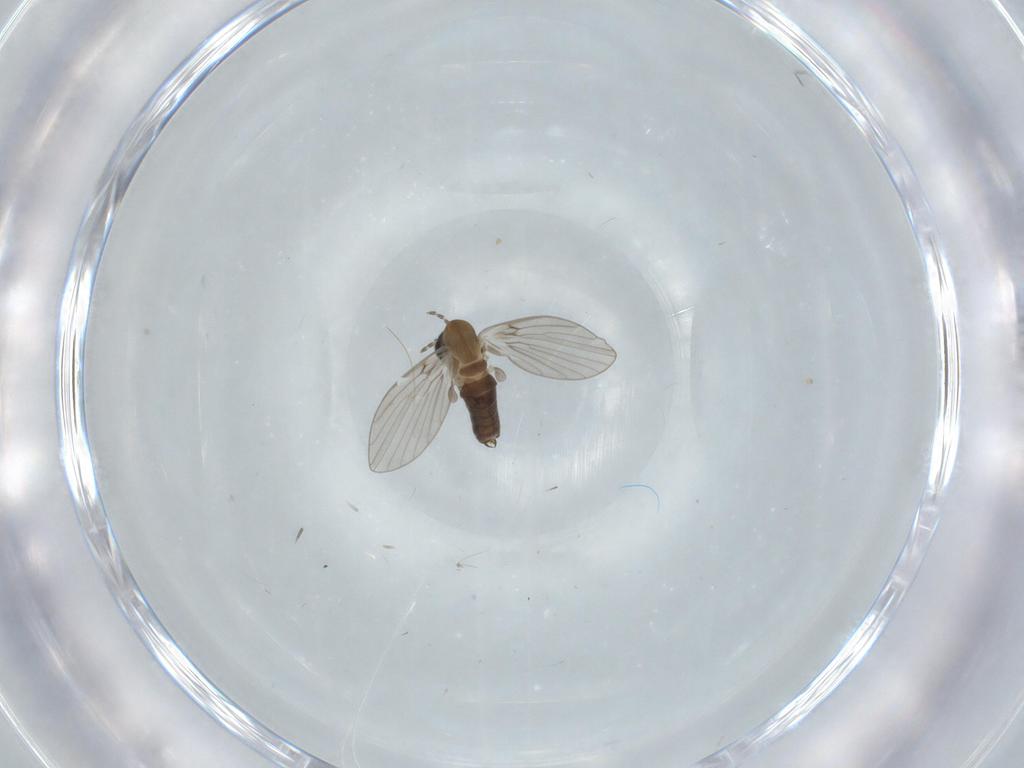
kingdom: Animalia
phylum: Arthropoda
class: Insecta
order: Diptera
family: Psychodidae
